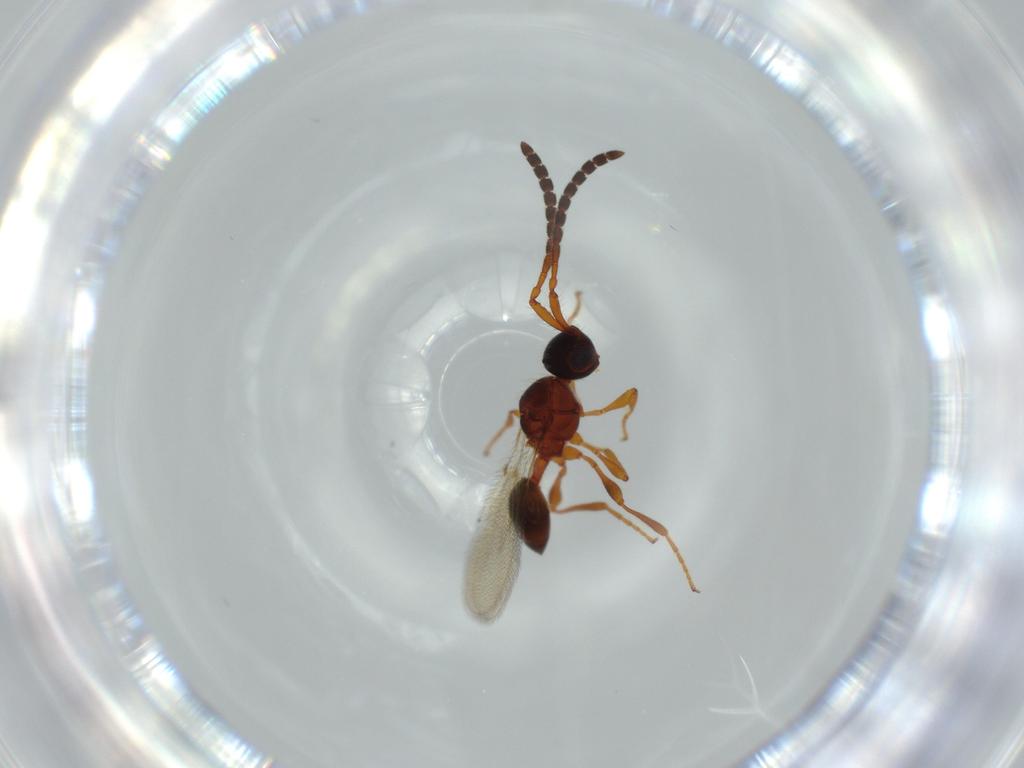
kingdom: Animalia
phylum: Arthropoda
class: Insecta
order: Hymenoptera
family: Diapriidae
